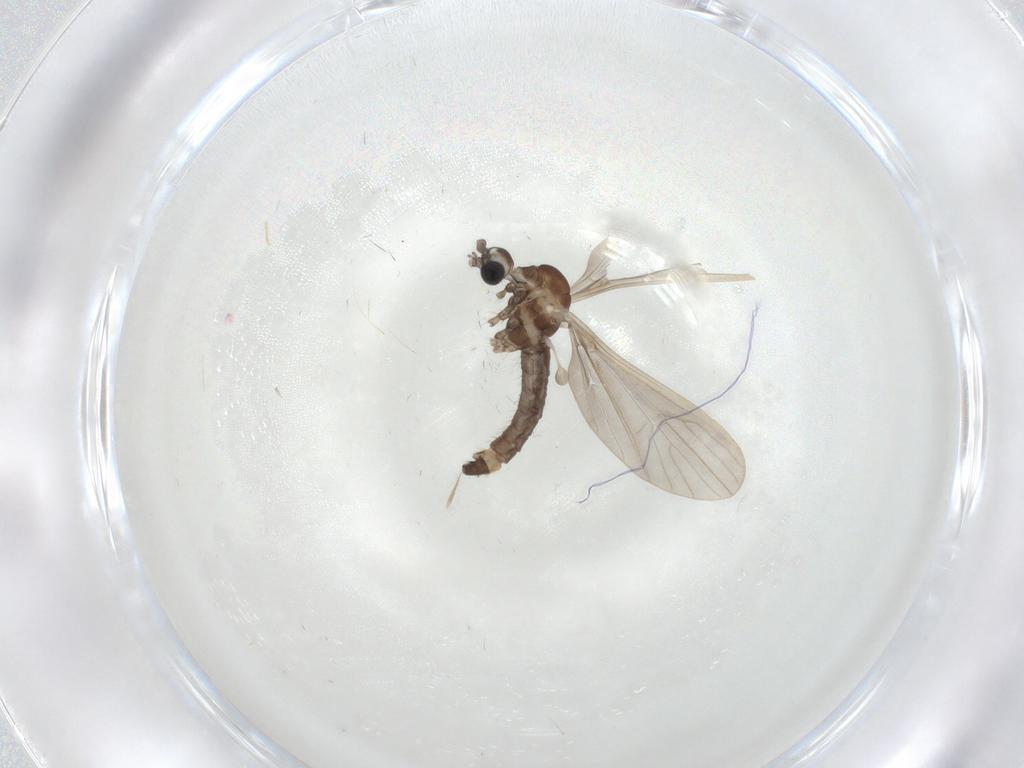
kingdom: Animalia
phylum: Arthropoda
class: Insecta
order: Diptera
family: Limoniidae
